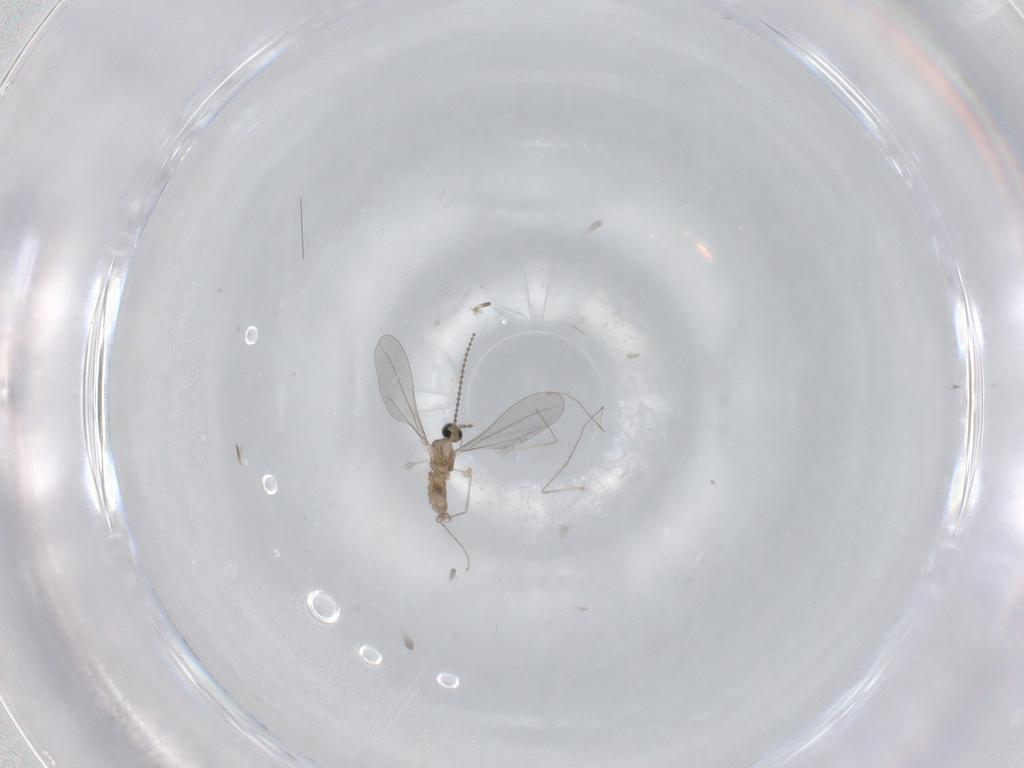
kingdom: Animalia
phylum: Arthropoda
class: Insecta
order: Diptera
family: Cecidomyiidae
